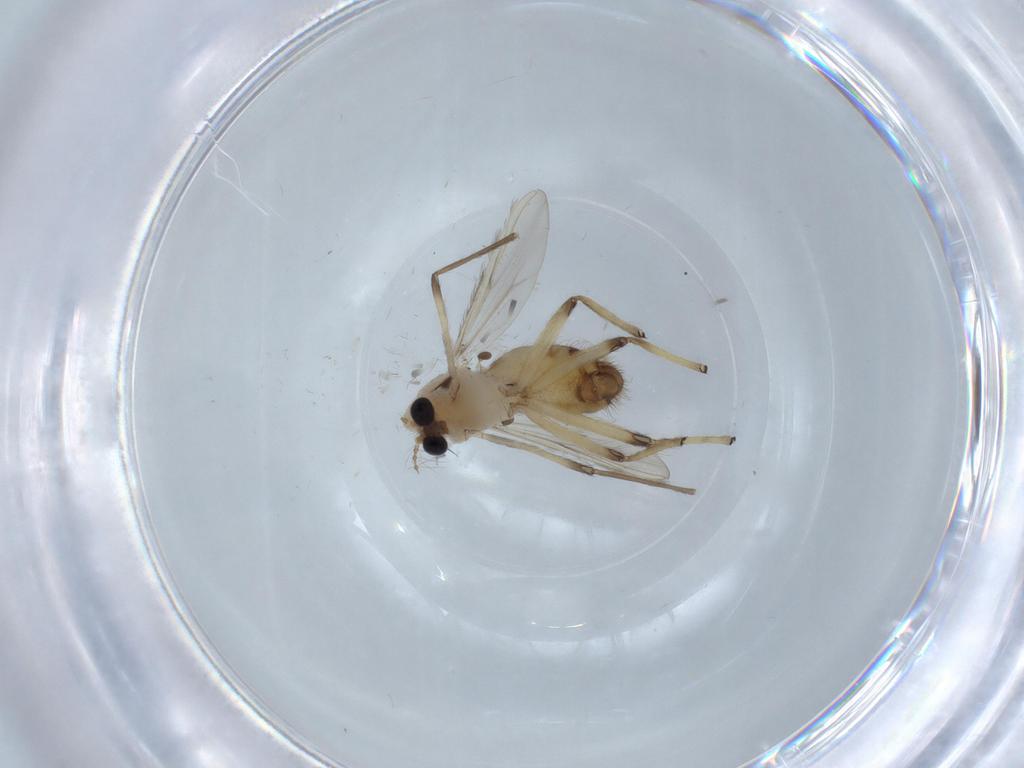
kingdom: Animalia
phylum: Arthropoda
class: Insecta
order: Diptera
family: Chironomidae
